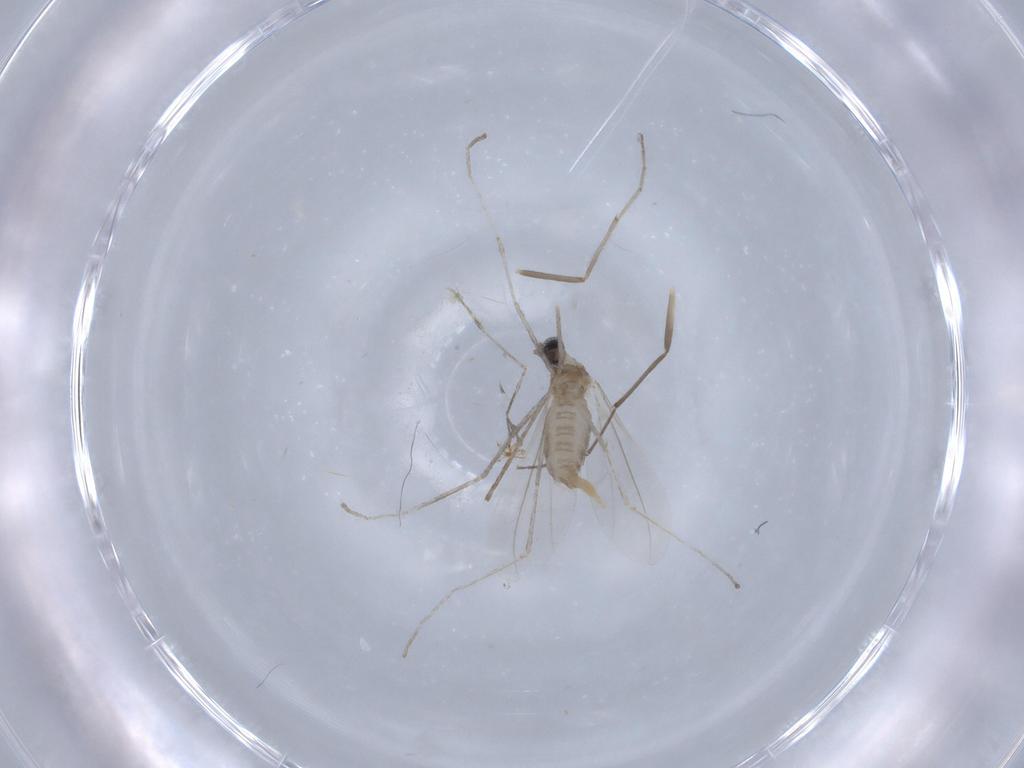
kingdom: Animalia
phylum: Arthropoda
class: Insecta
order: Diptera
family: Cecidomyiidae
